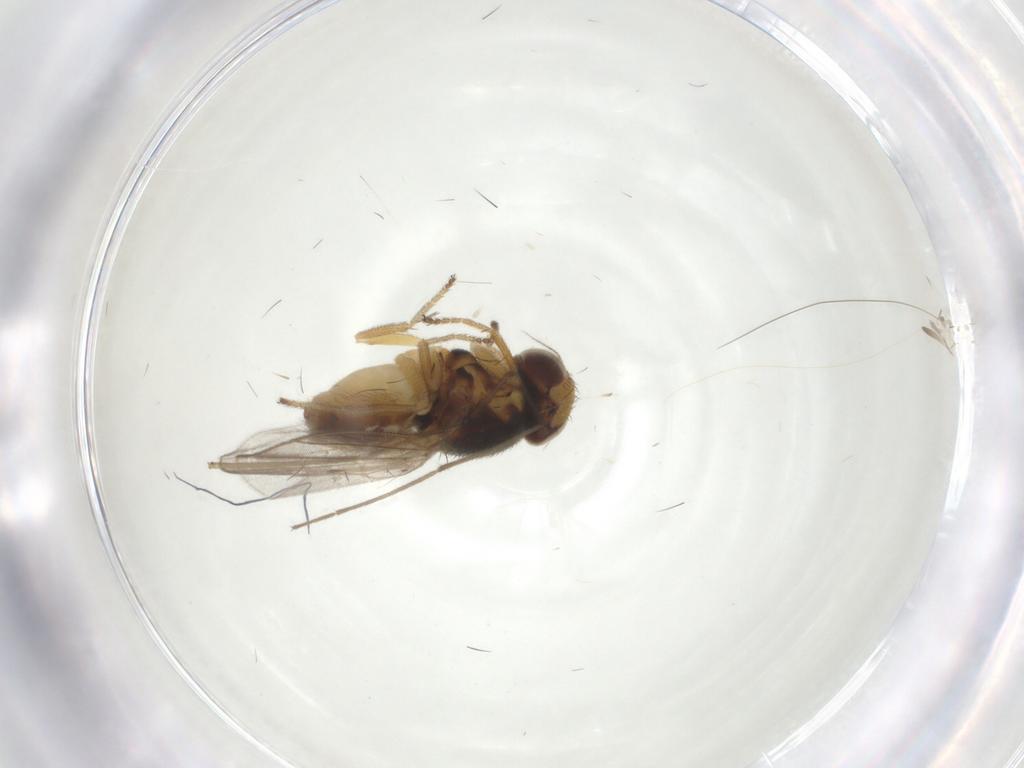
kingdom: Animalia
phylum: Arthropoda
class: Insecta
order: Diptera
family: Chloropidae
